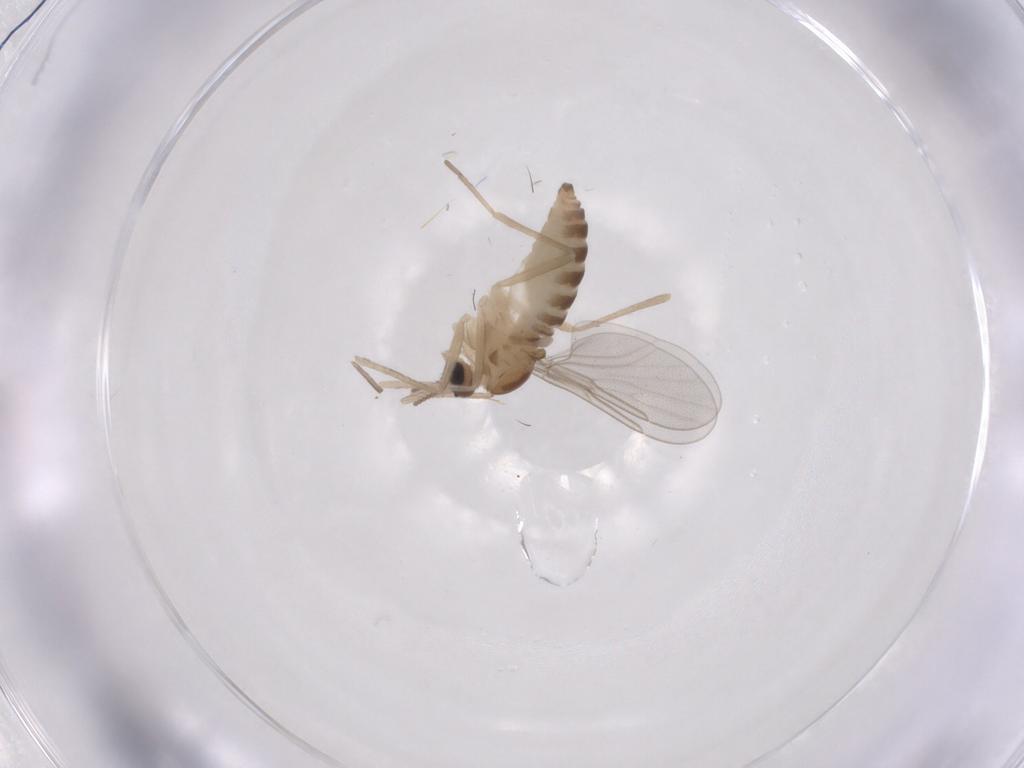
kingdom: Animalia
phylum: Arthropoda
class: Insecta
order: Diptera
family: Cecidomyiidae
